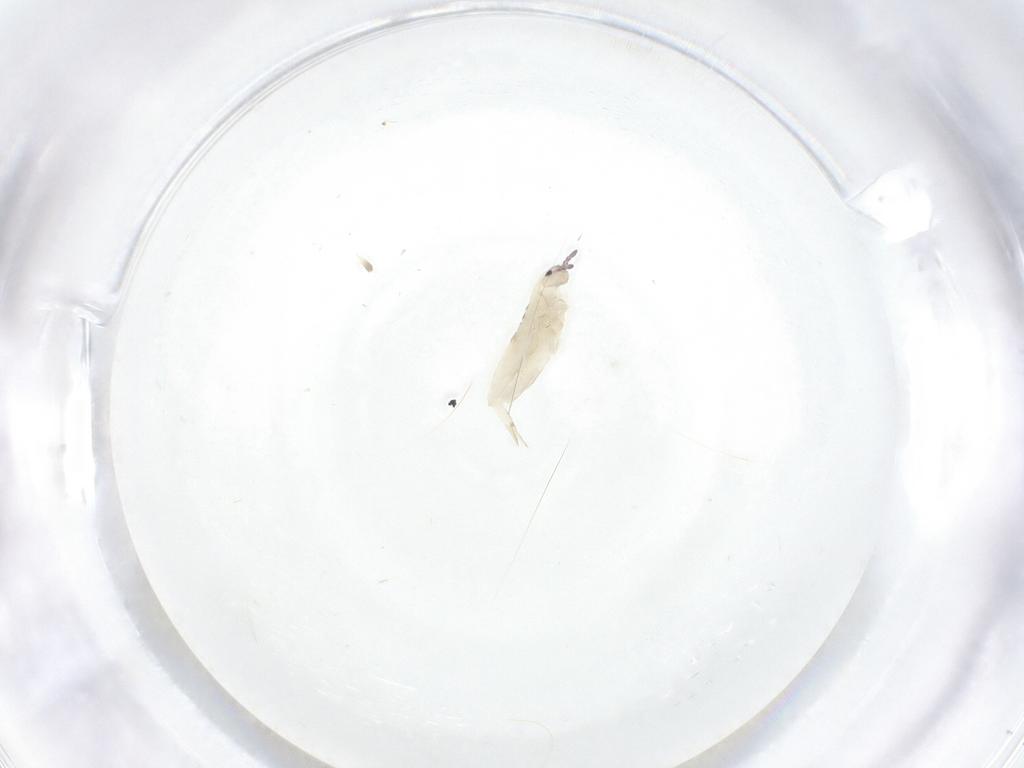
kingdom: Animalia
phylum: Arthropoda
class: Collembola
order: Entomobryomorpha
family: Entomobryidae
